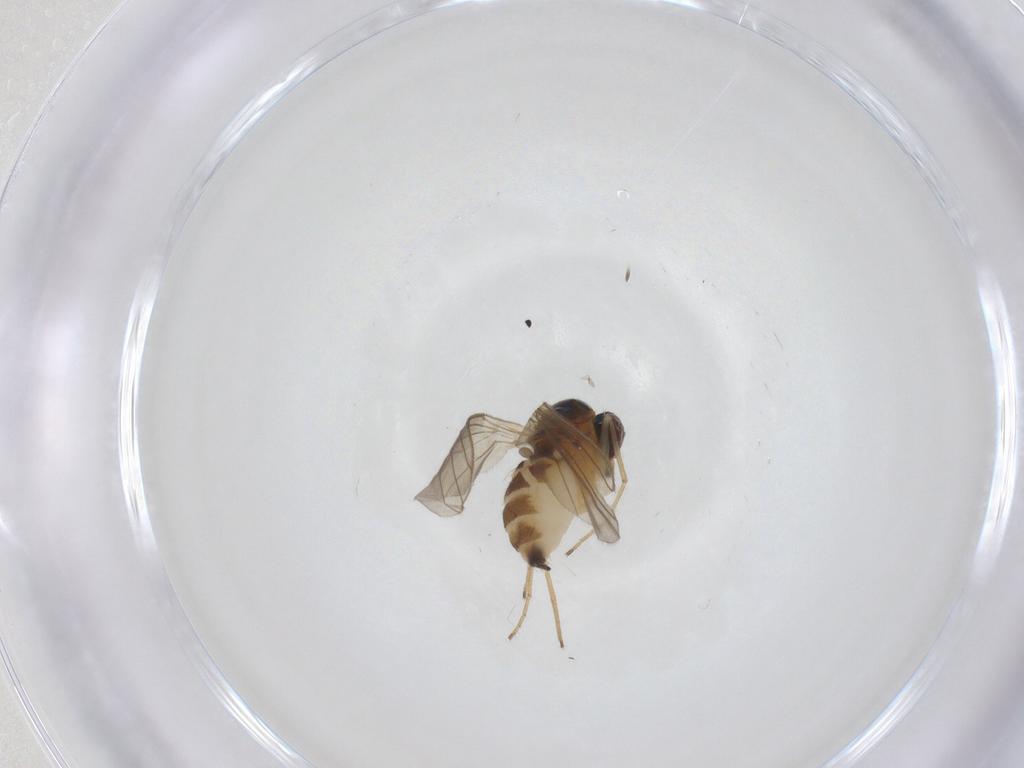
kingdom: Animalia
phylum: Arthropoda
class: Insecta
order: Diptera
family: Dolichopodidae
